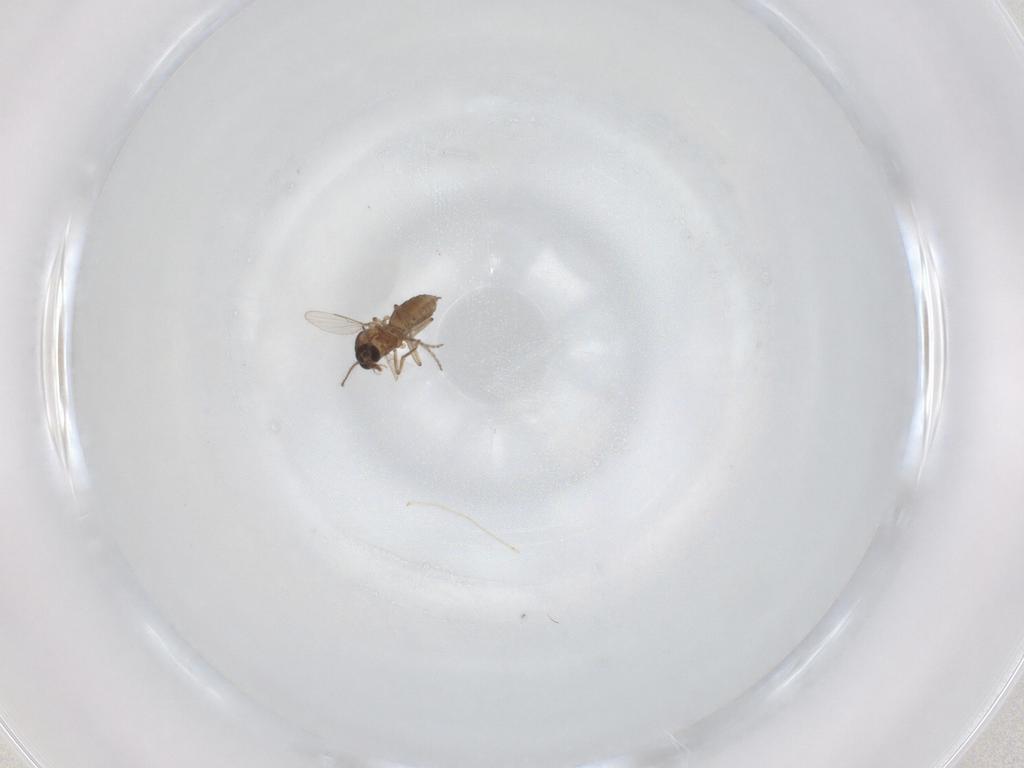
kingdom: Animalia
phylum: Arthropoda
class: Insecta
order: Diptera
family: Ceratopogonidae
